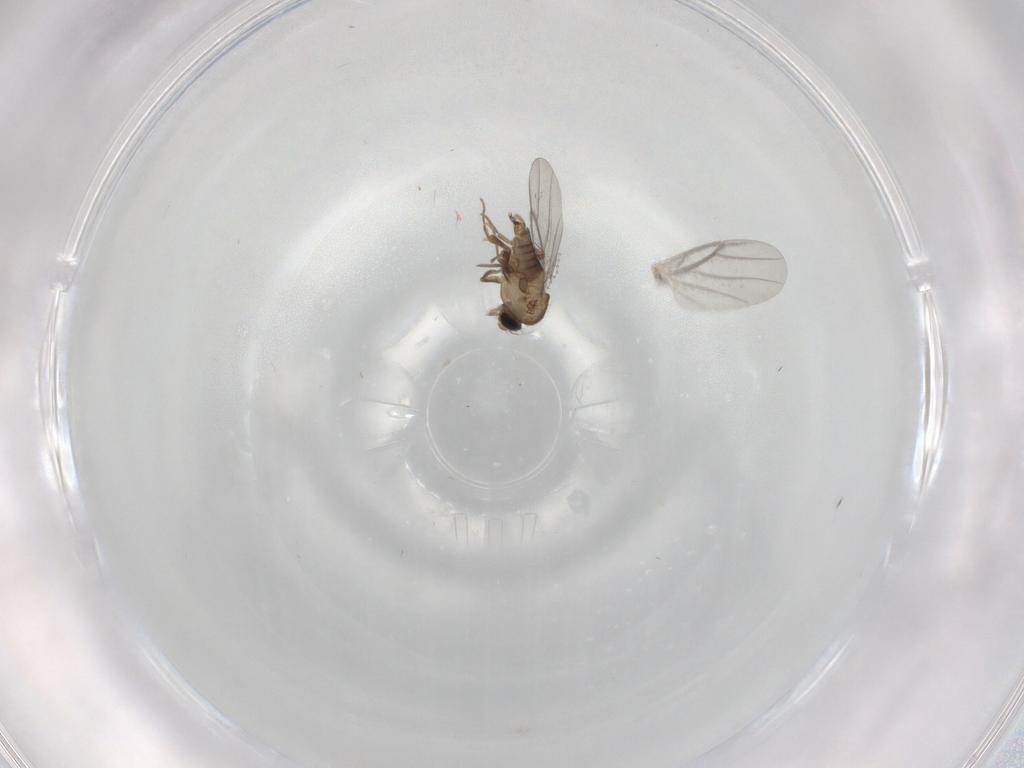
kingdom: Animalia
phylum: Arthropoda
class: Insecta
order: Diptera
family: Cecidomyiidae
